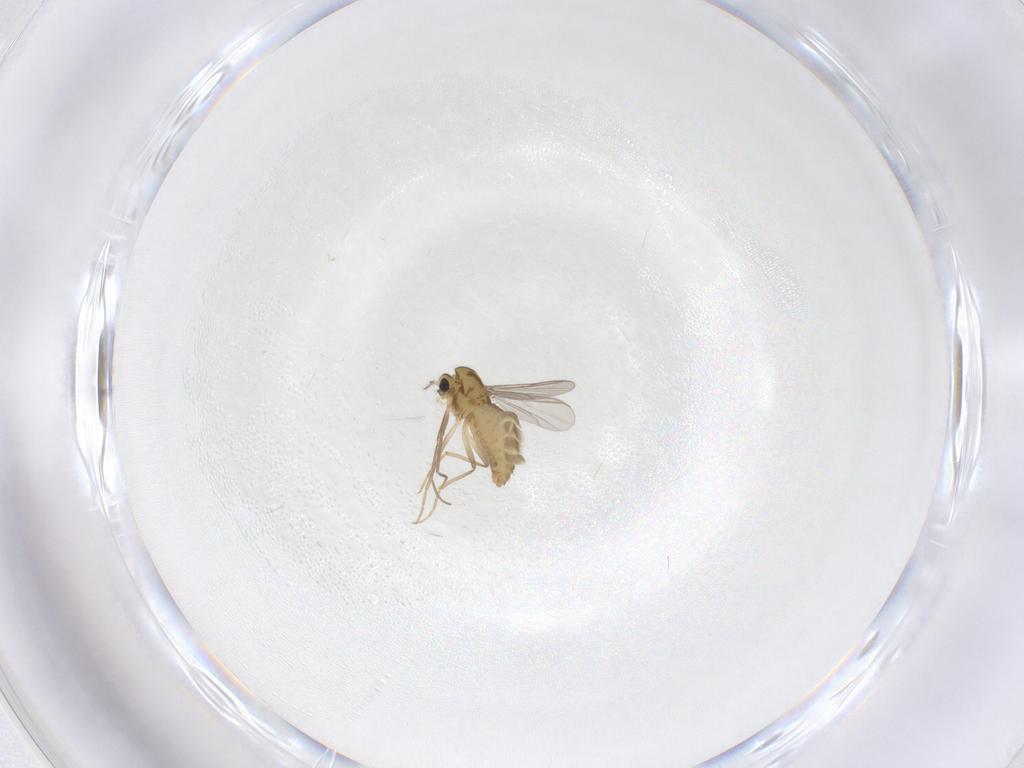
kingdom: Animalia
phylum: Arthropoda
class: Insecta
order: Diptera
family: Chironomidae
